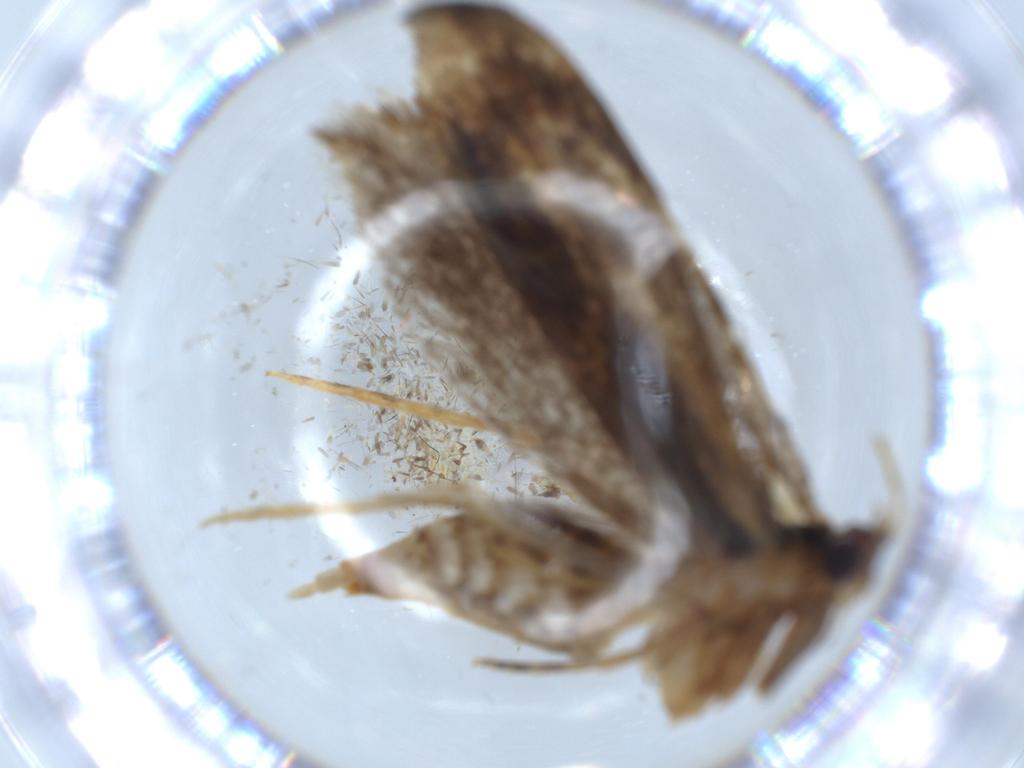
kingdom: Animalia
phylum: Arthropoda
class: Insecta
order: Lepidoptera
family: Tineidae
